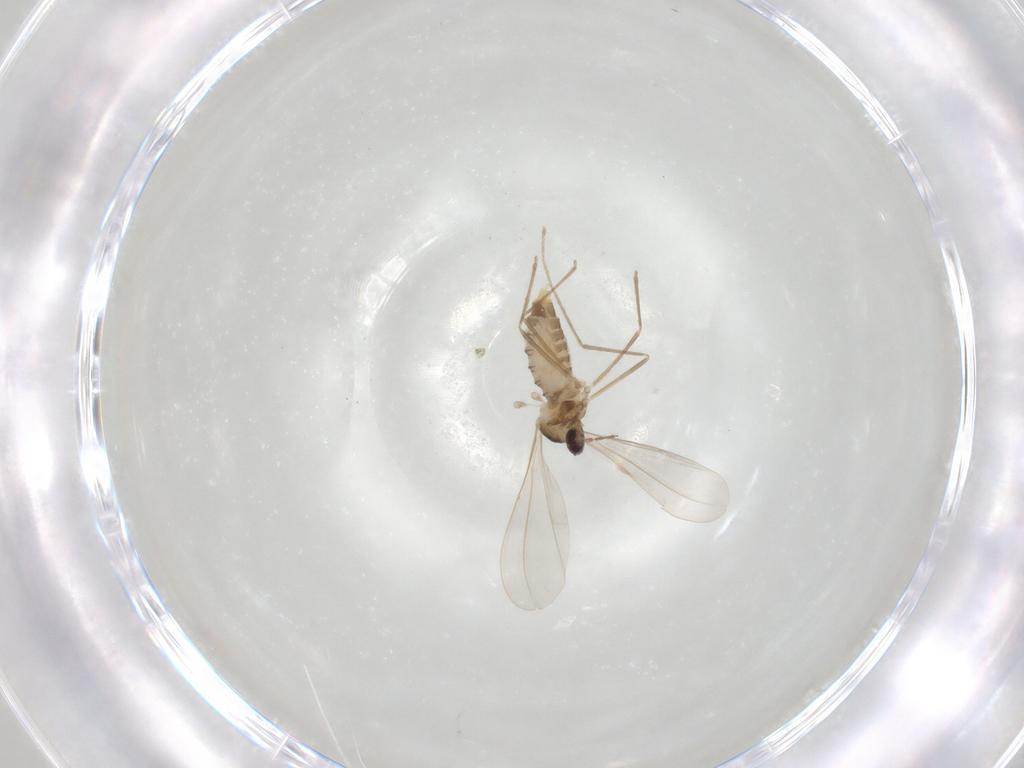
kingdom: Animalia
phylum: Arthropoda
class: Insecta
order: Diptera
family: Cecidomyiidae
